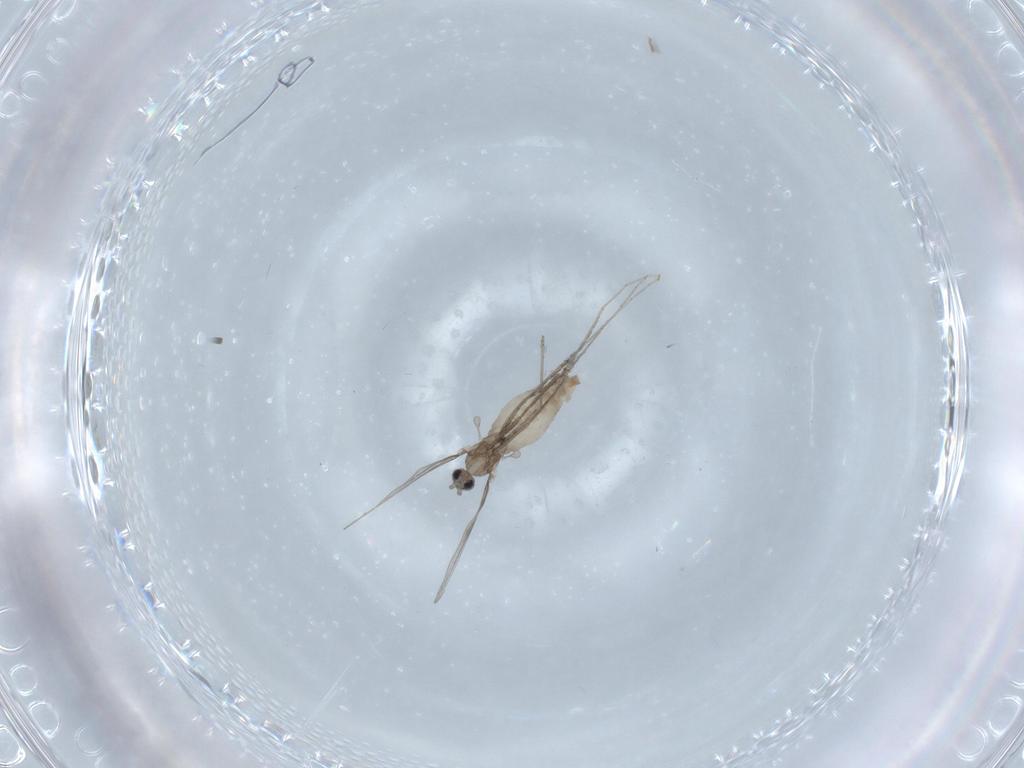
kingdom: Animalia
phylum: Arthropoda
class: Insecta
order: Diptera
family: Cecidomyiidae
